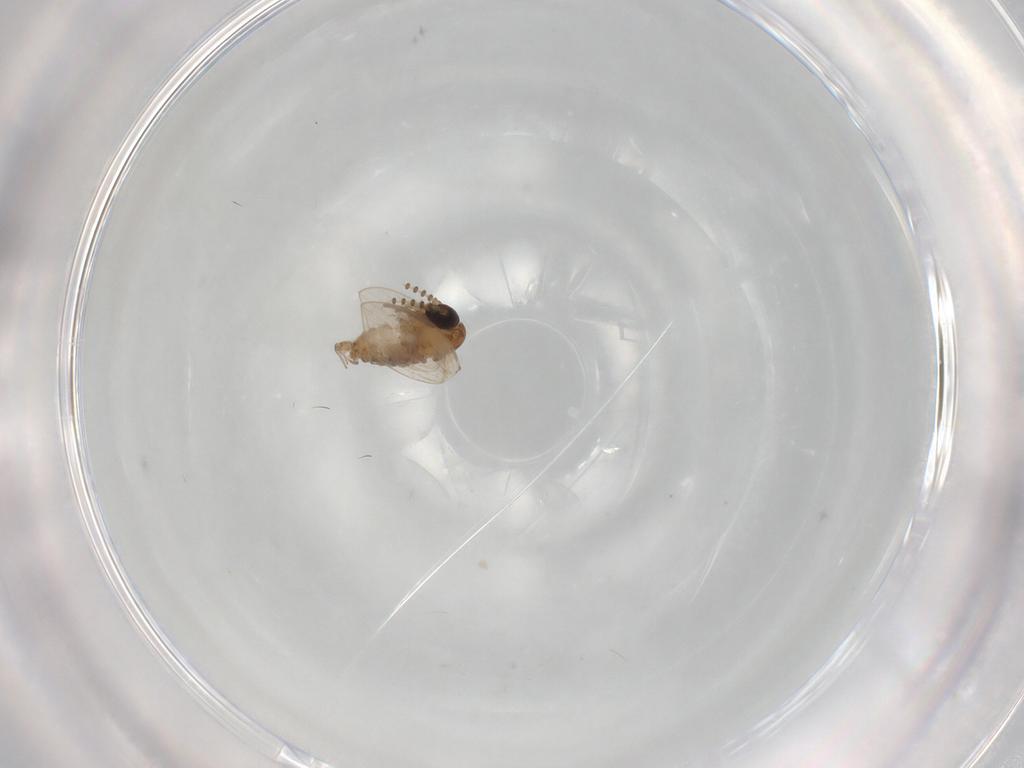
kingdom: Animalia
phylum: Arthropoda
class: Insecta
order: Diptera
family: Psychodidae
